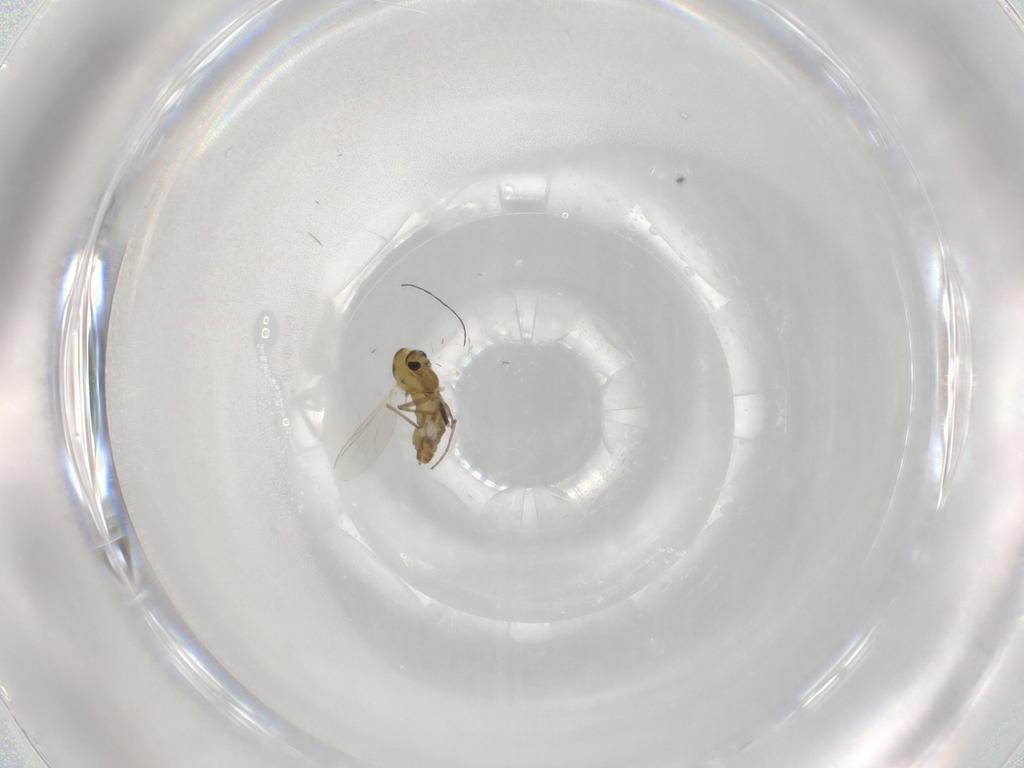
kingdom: Animalia
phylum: Arthropoda
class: Insecta
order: Diptera
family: Chironomidae
